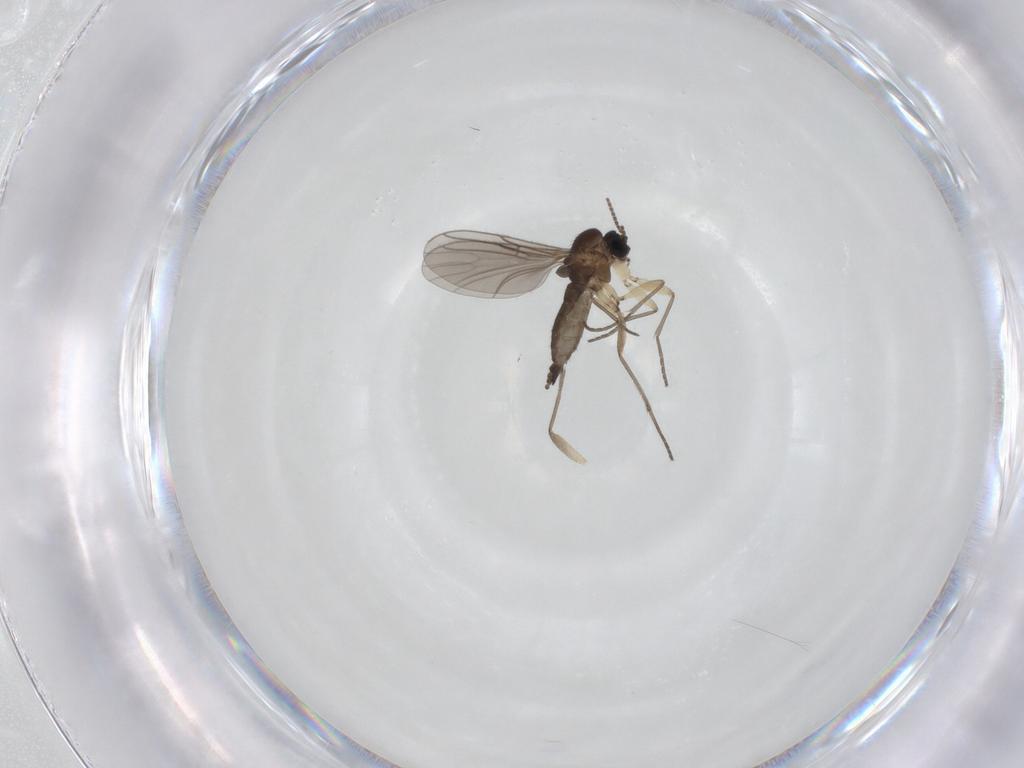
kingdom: Animalia
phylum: Arthropoda
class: Insecta
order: Diptera
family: Sciaridae
